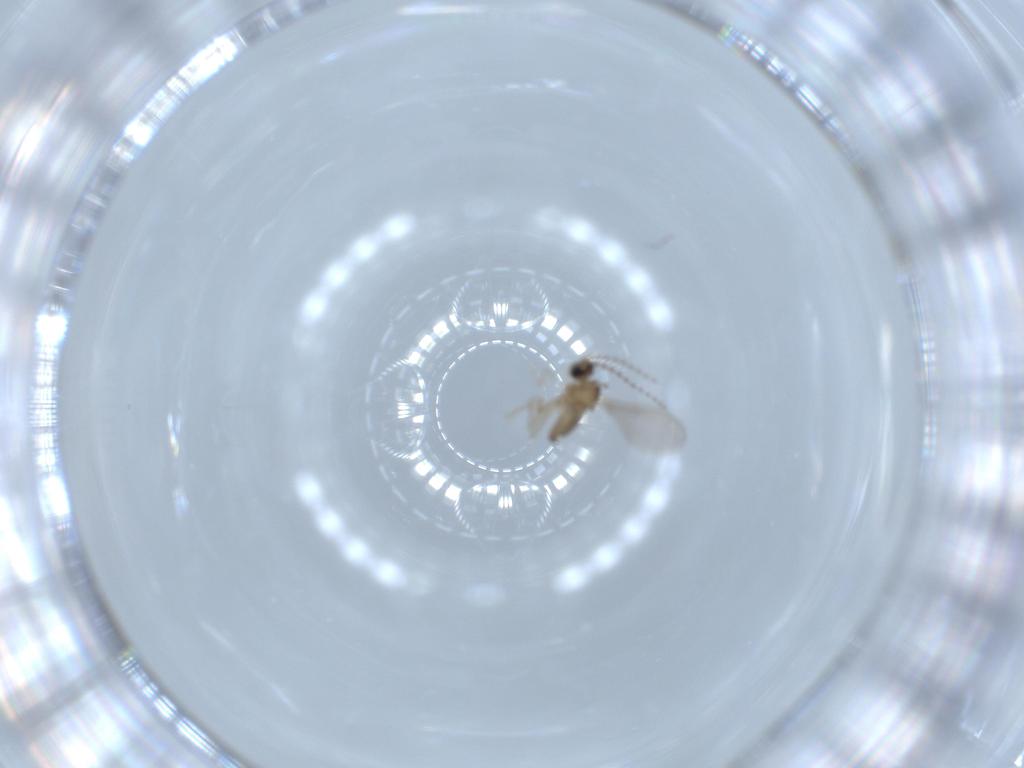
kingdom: Animalia
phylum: Arthropoda
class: Insecta
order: Diptera
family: Cecidomyiidae
